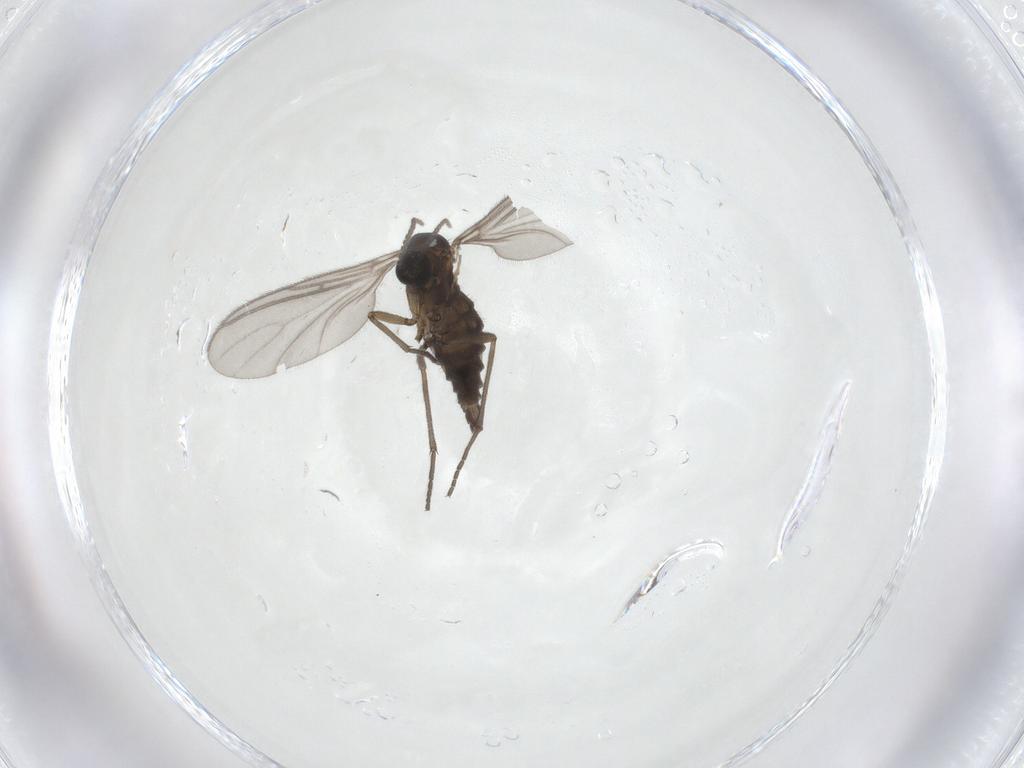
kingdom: Animalia
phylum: Arthropoda
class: Insecta
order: Diptera
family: Sciaridae
